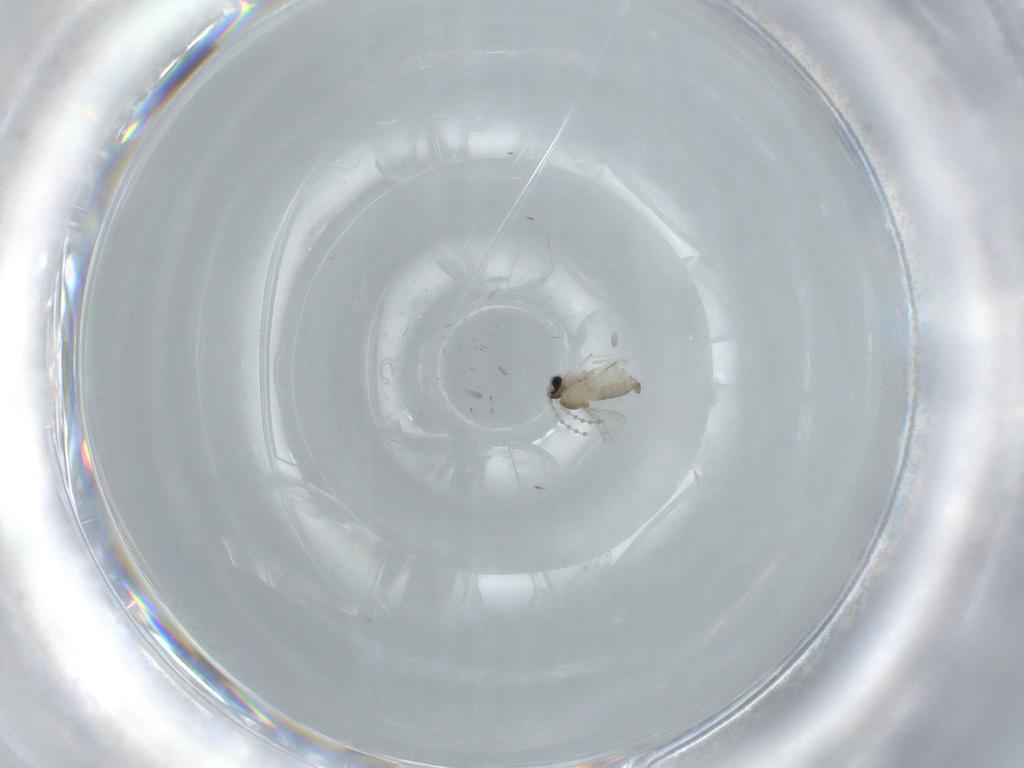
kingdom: Animalia
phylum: Arthropoda
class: Insecta
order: Diptera
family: Cecidomyiidae
